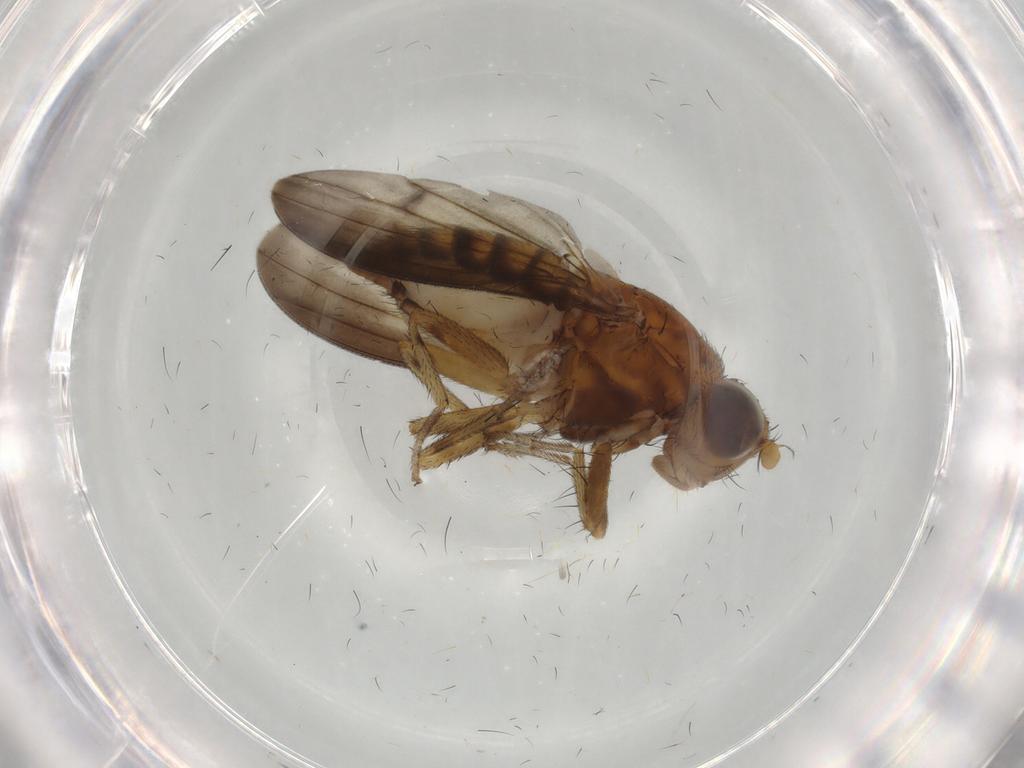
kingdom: Animalia
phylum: Arthropoda
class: Insecta
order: Diptera
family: Lauxaniidae
